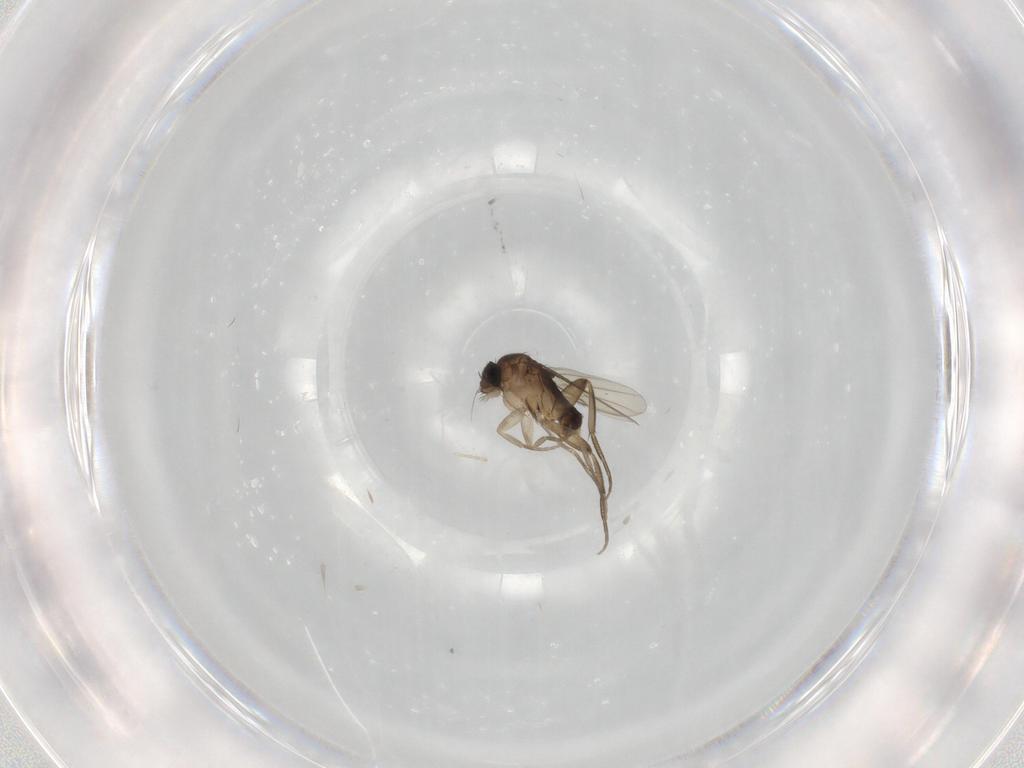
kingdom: Animalia
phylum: Arthropoda
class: Insecta
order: Diptera
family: Phoridae
